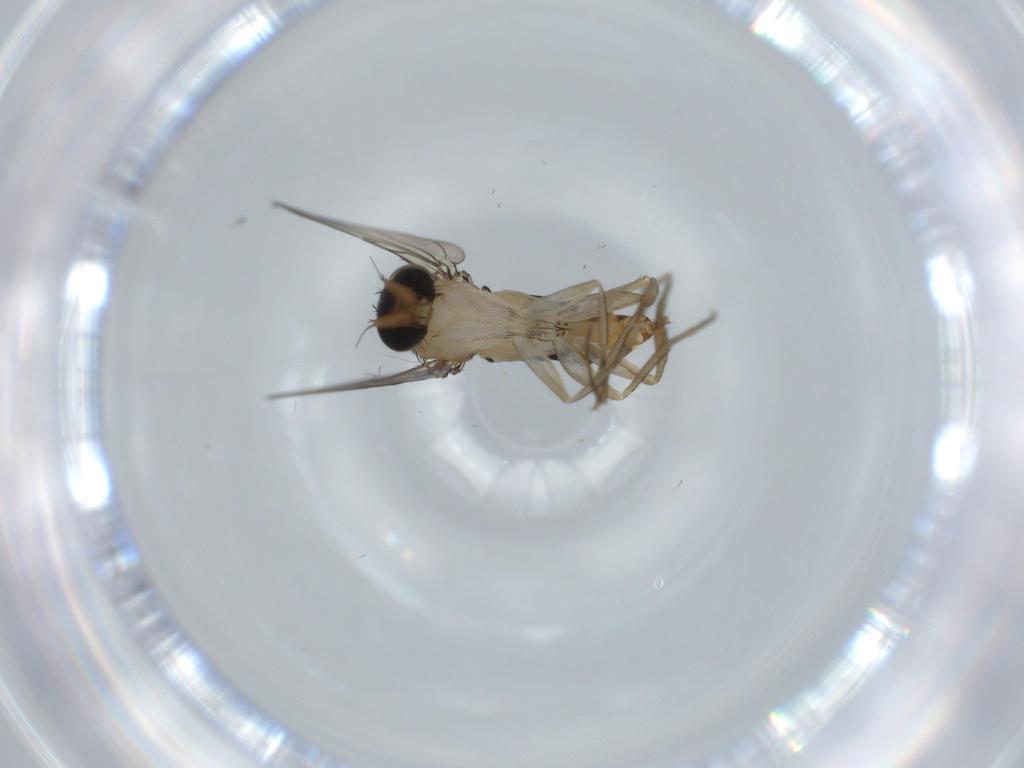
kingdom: Animalia
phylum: Arthropoda
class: Insecta
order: Diptera
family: Phoridae
